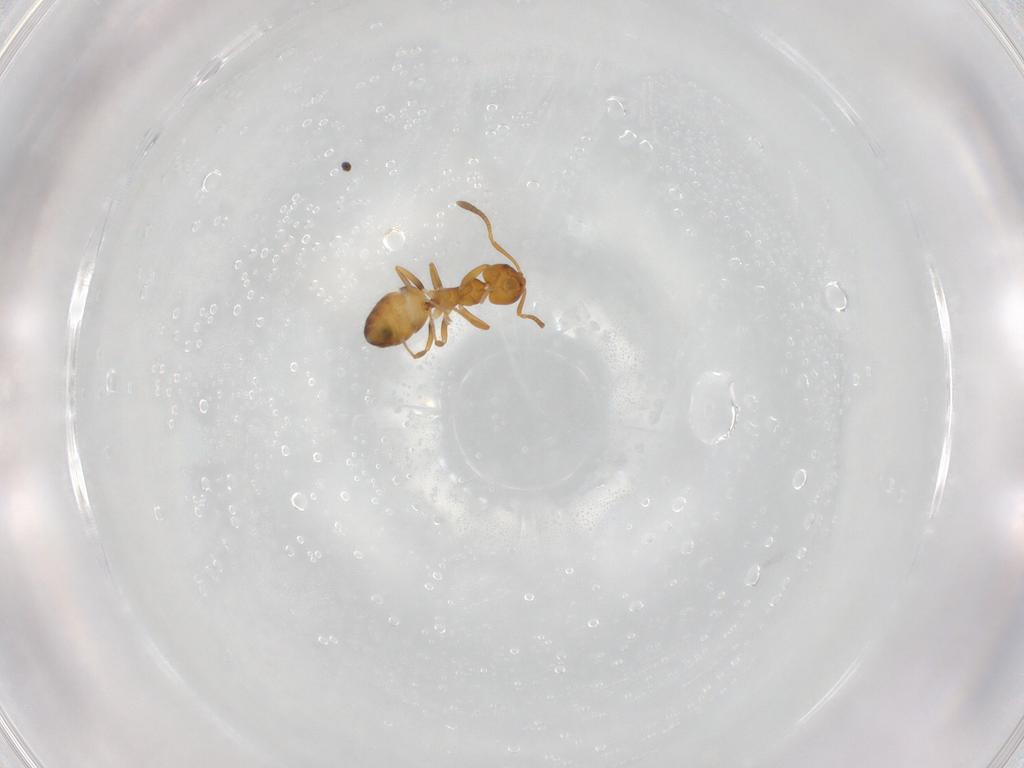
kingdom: Animalia
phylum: Arthropoda
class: Insecta
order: Hymenoptera
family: Formicidae
